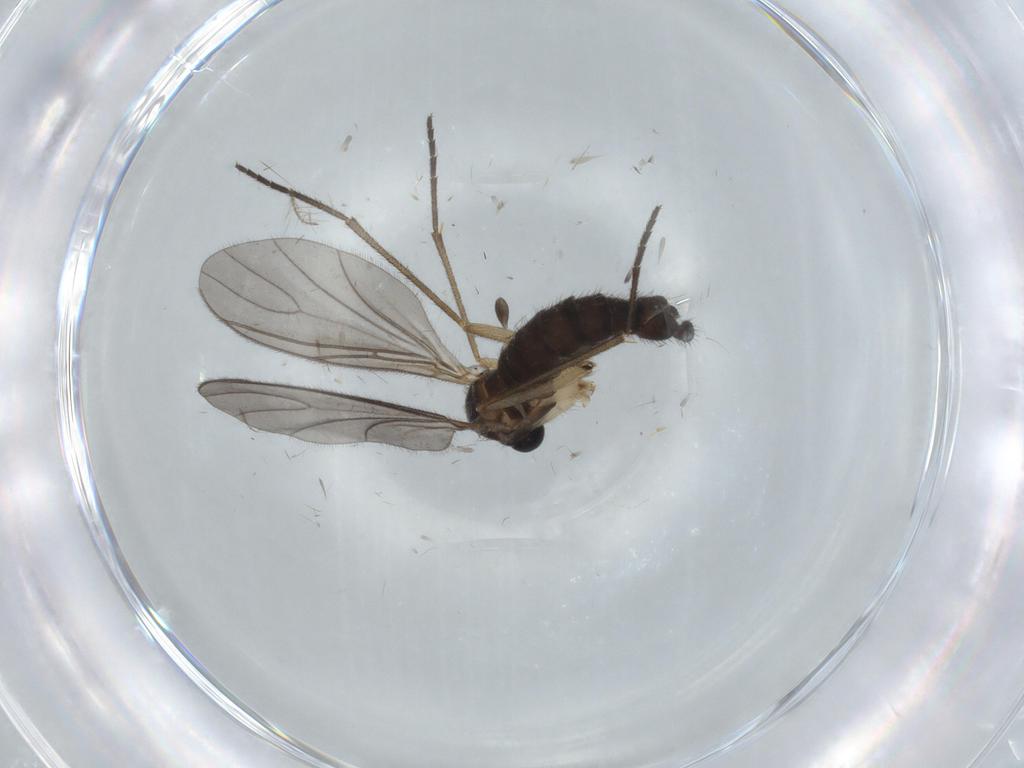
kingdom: Animalia
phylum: Arthropoda
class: Insecta
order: Diptera
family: Sciaridae
